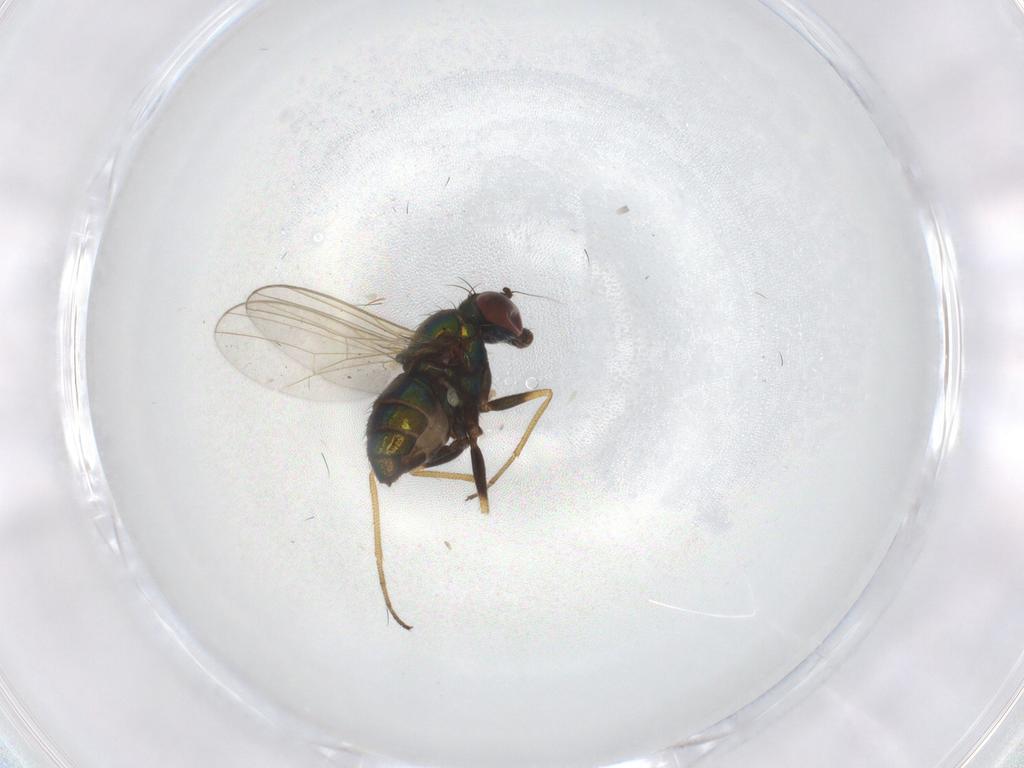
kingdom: Animalia
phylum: Arthropoda
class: Insecta
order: Diptera
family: Dolichopodidae
